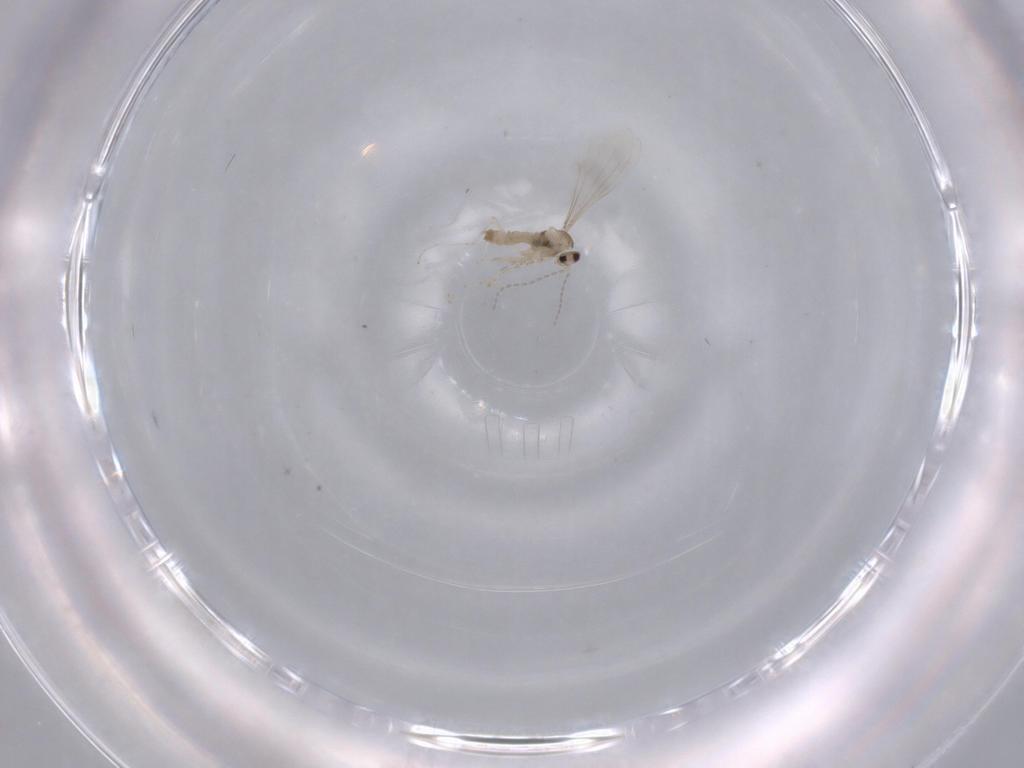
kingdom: Animalia
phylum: Arthropoda
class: Insecta
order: Diptera
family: Cecidomyiidae
